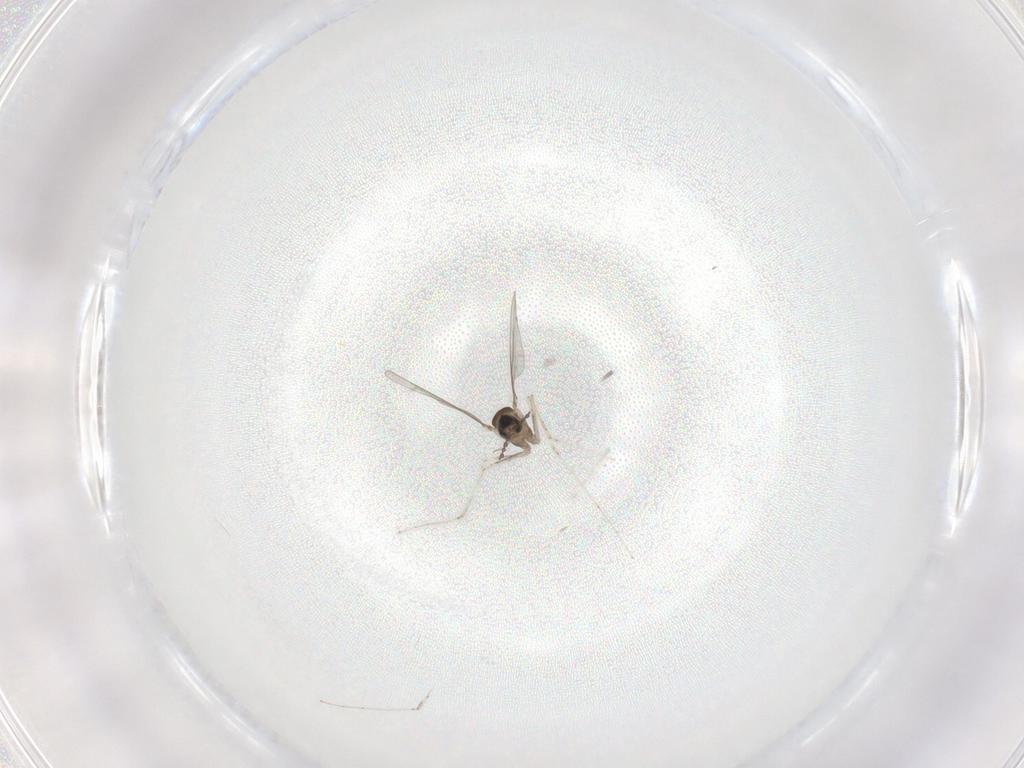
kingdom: Animalia
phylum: Arthropoda
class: Insecta
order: Diptera
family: Cecidomyiidae
